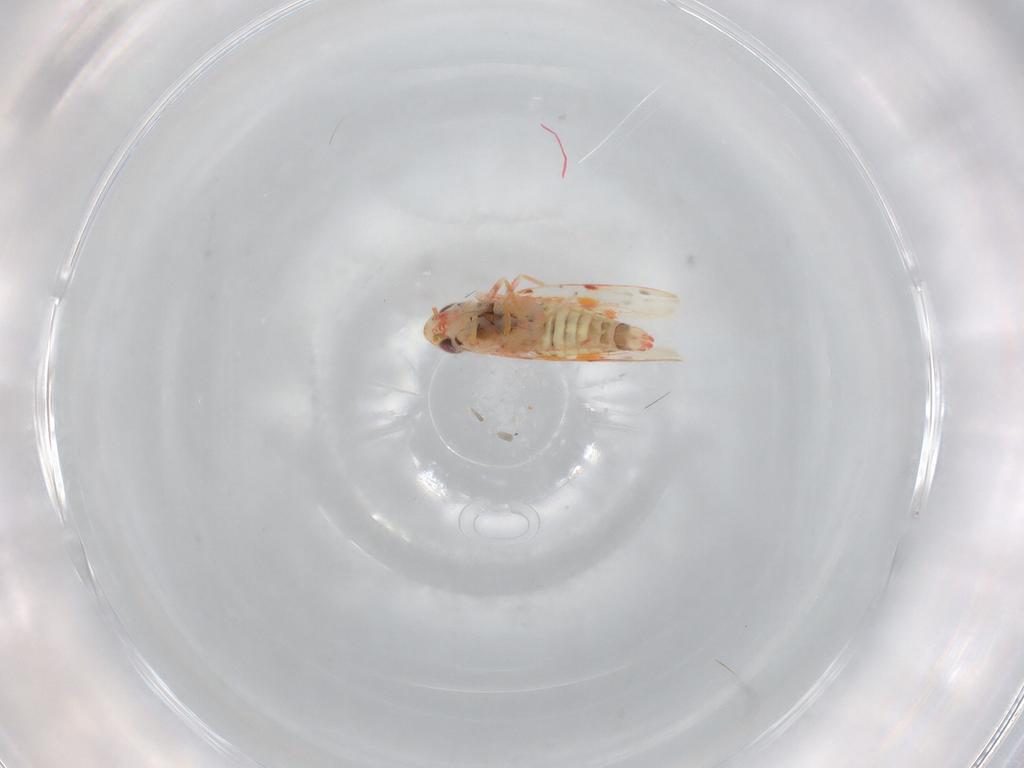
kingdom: Animalia
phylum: Arthropoda
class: Insecta
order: Hemiptera
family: Cicadellidae
